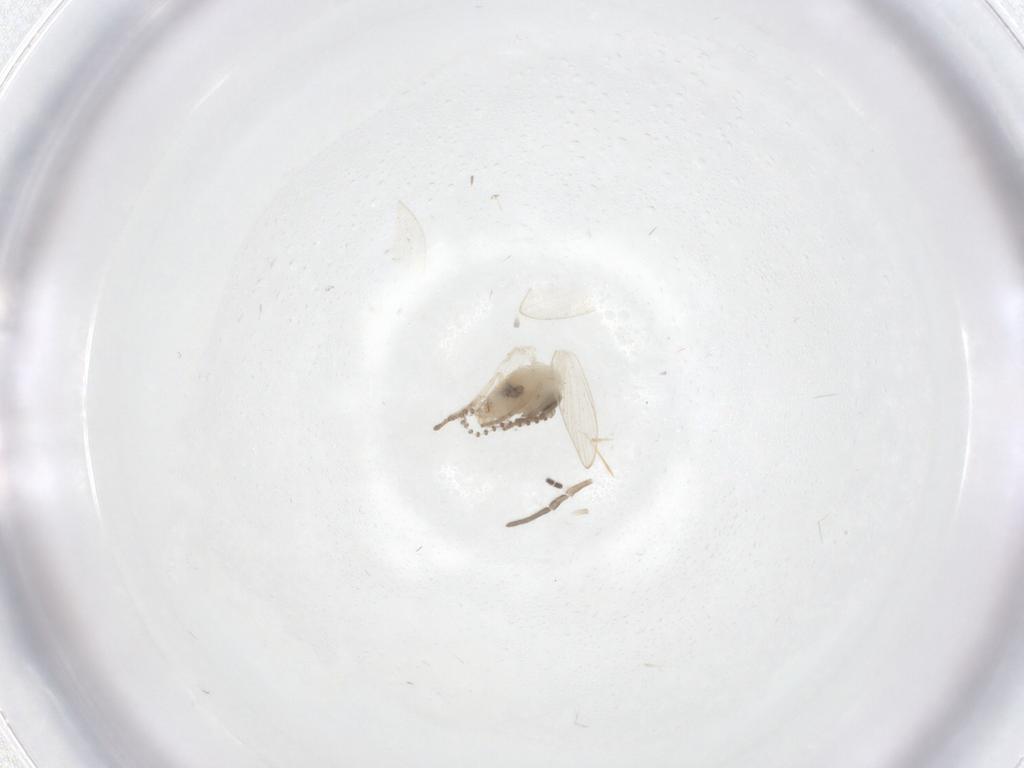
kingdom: Animalia
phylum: Arthropoda
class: Insecta
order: Diptera
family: Psychodidae
